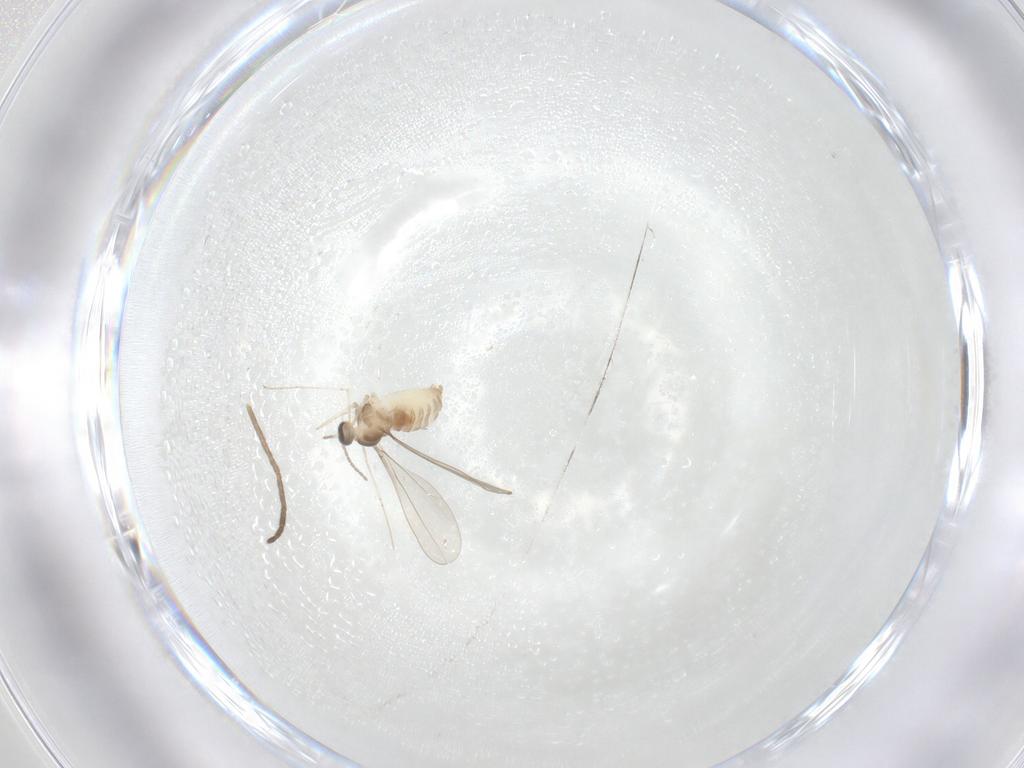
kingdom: Animalia
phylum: Arthropoda
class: Insecta
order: Diptera
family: Cecidomyiidae
